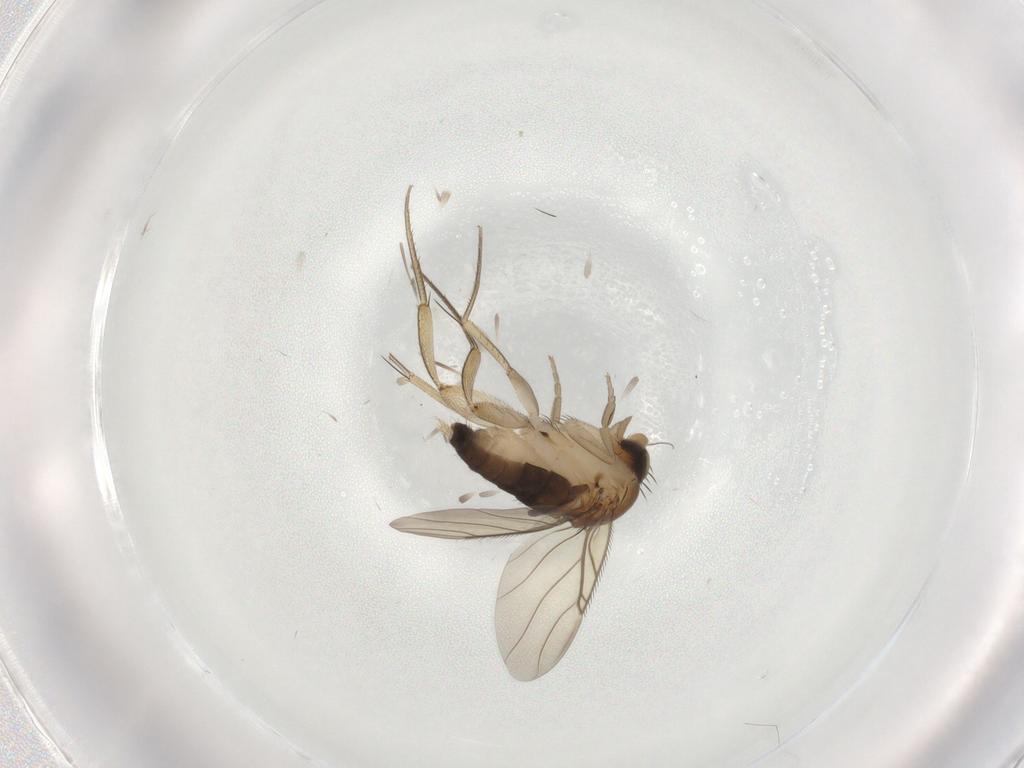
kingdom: Animalia
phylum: Arthropoda
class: Insecta
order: Diptera
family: Phoridae
